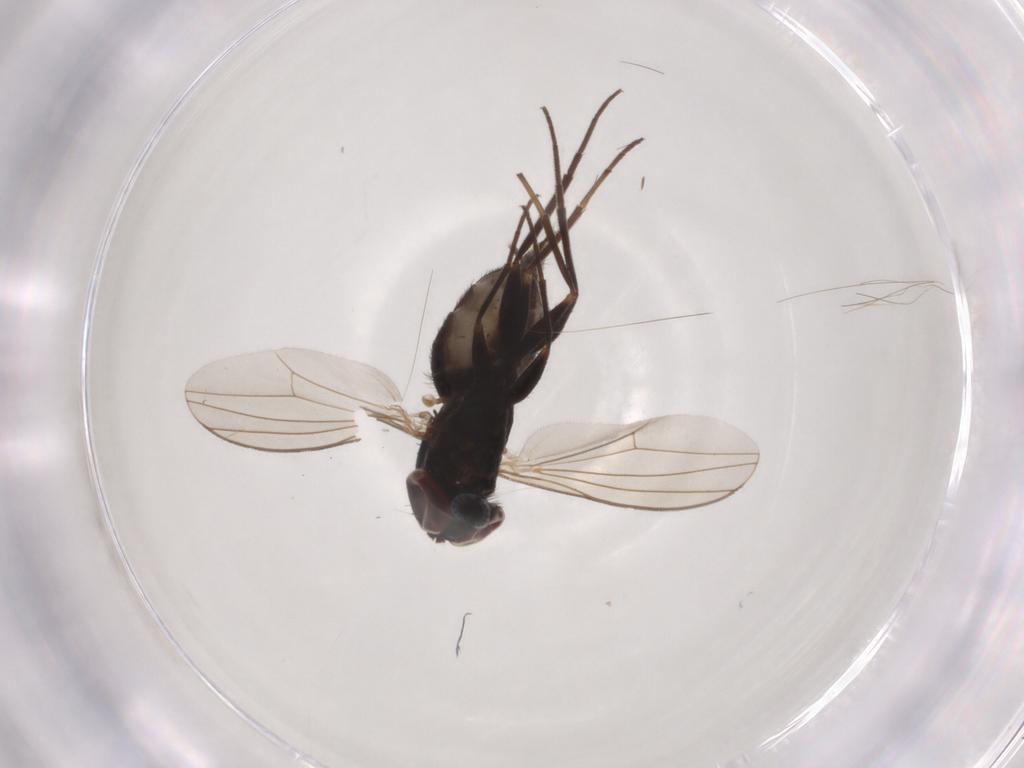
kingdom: Animalia
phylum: Arthropoda
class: Insecta
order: Diptera
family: Dolichopodidae
